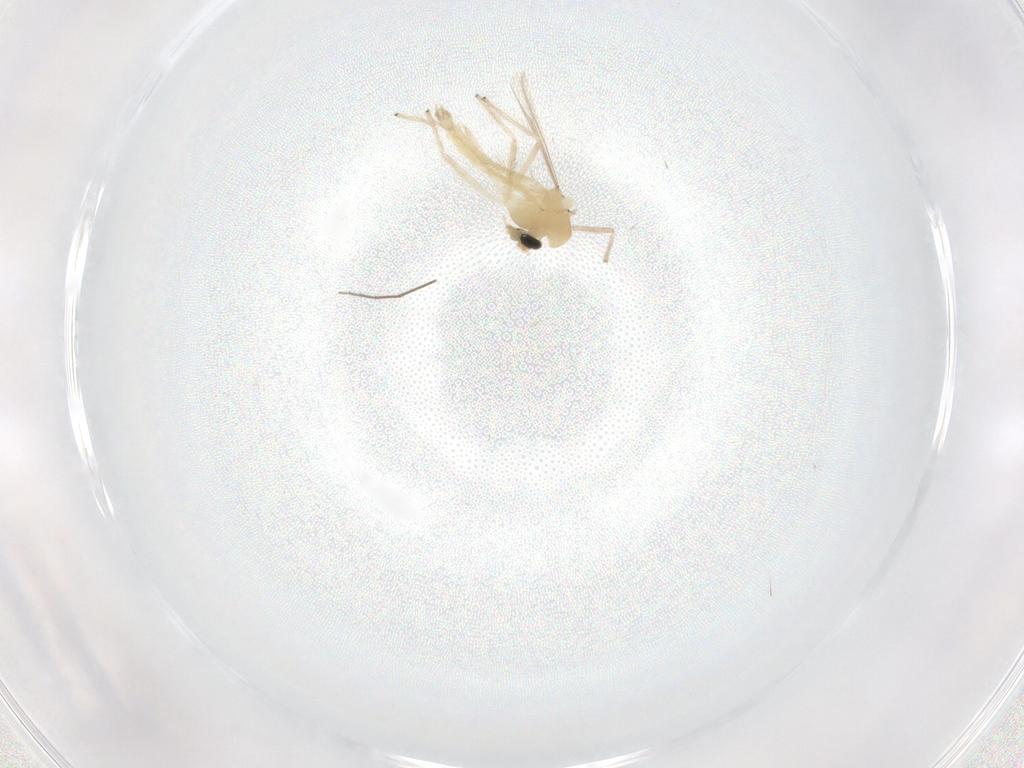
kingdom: Animalia
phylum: Arthropoda
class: Insecta
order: Diptera
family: Chironomidae
